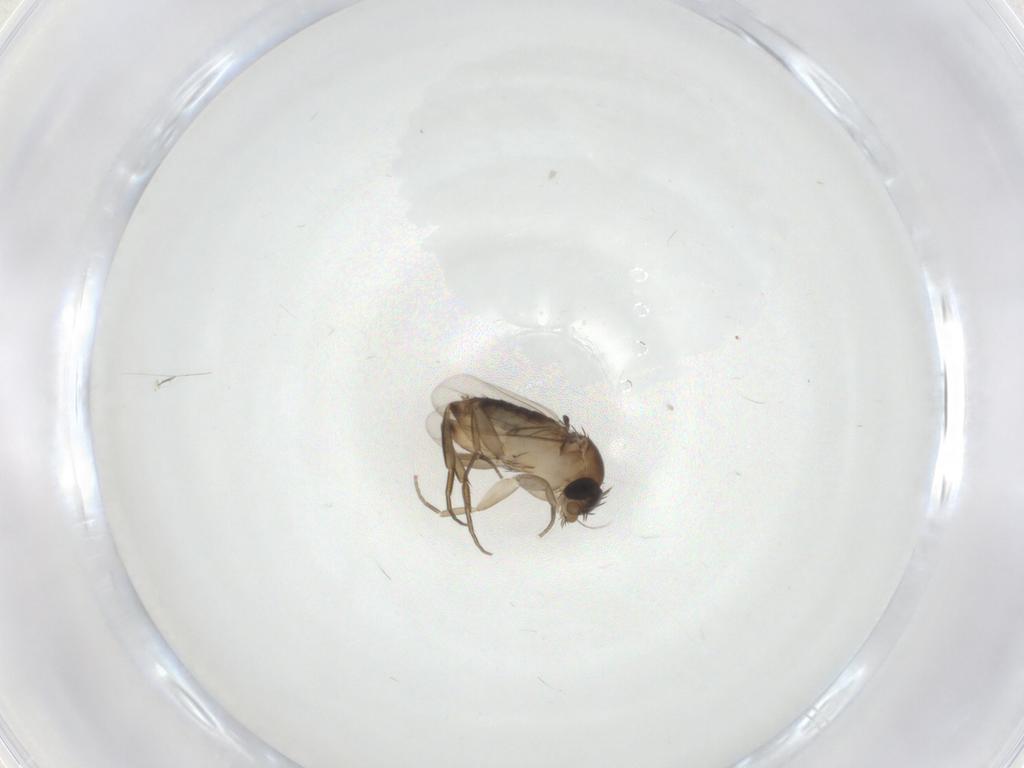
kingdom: Animalia
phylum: Arthropoda
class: Insecta
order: Diptera
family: Phoridae
